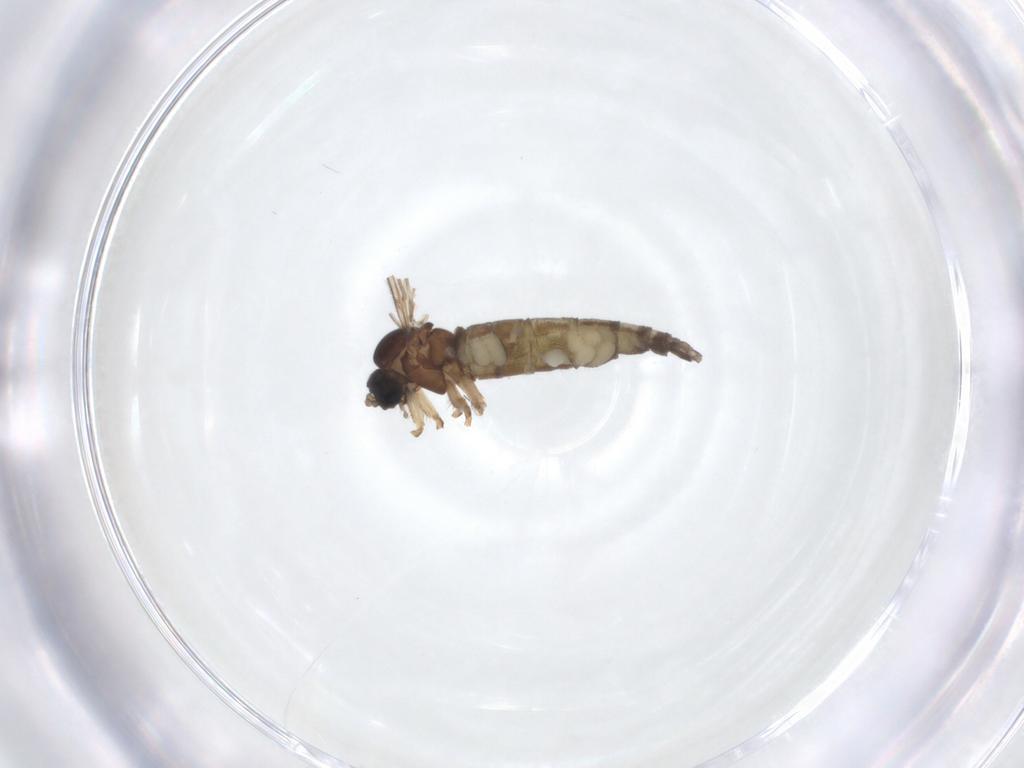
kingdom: Animalia
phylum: Arthropoda
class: Insecta
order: Diptera
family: Sciaridae
